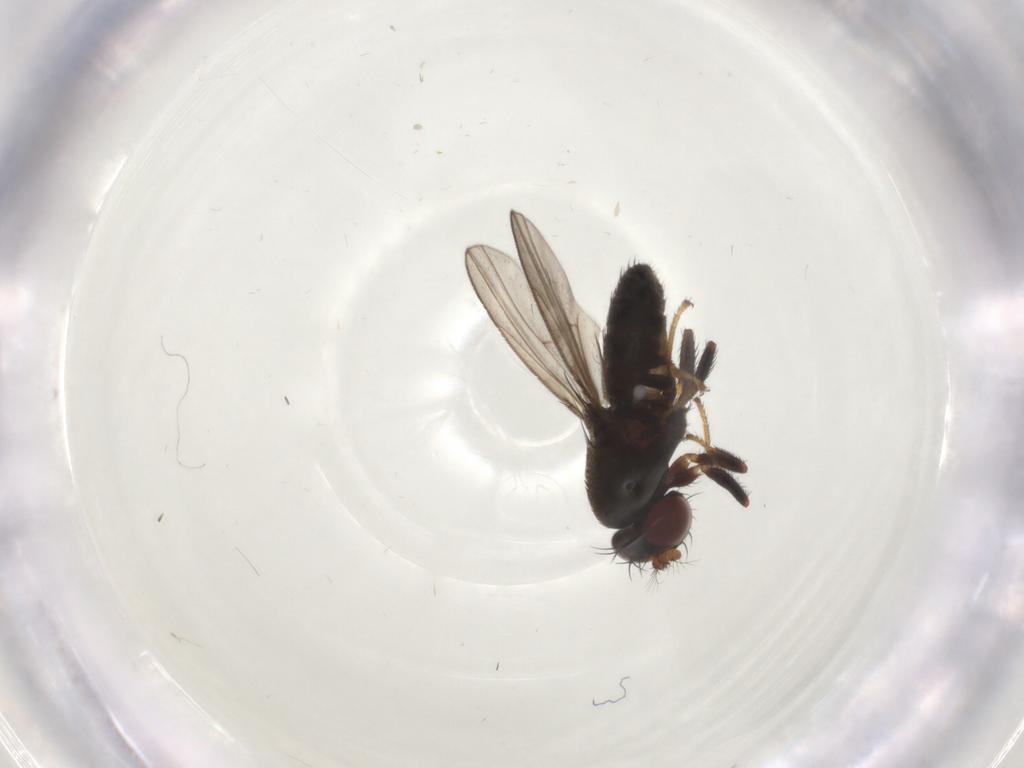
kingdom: Animalia
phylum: Arthropoda
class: Insecta
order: Diptera
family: Ephydridae
